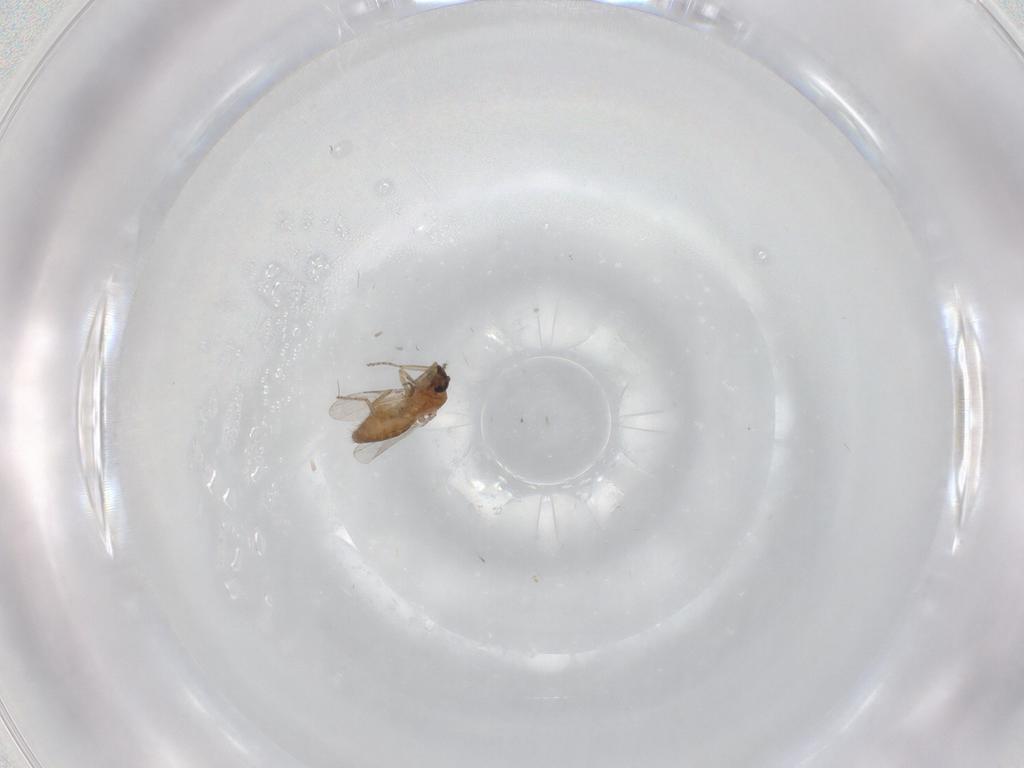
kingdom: Animalia
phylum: Arthropoda
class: Insecta
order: Diptera
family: Ceratopogonidae
